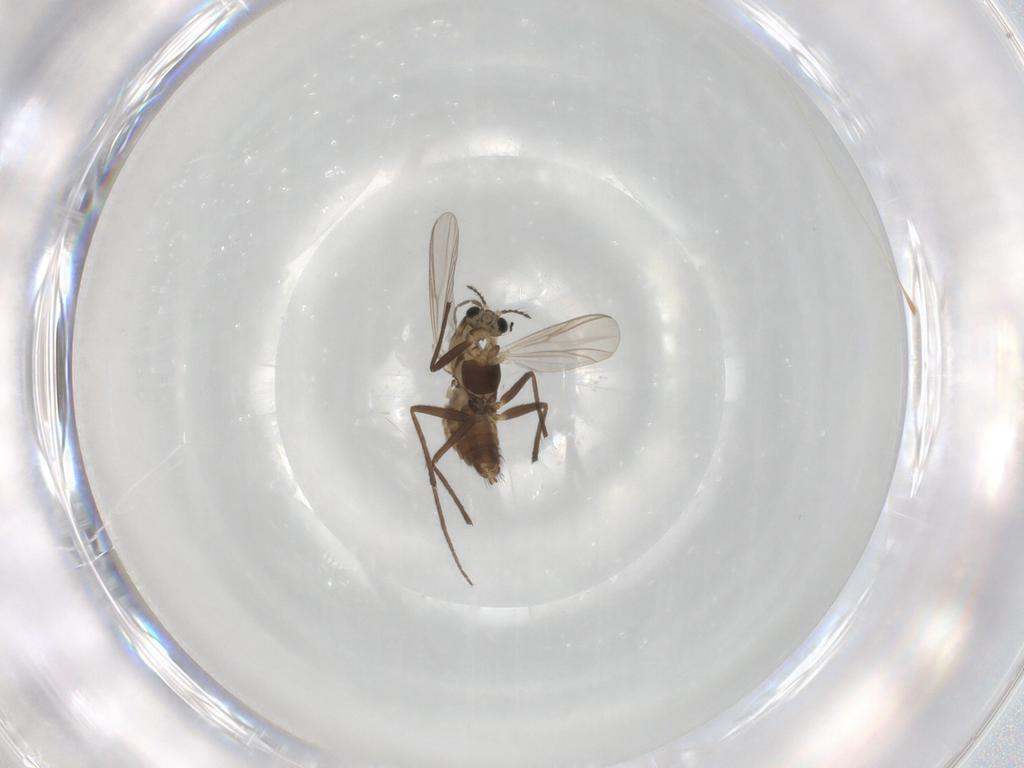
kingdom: Animalia
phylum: Arthropoda
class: Insecta
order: Diptera
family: Chironomidae
